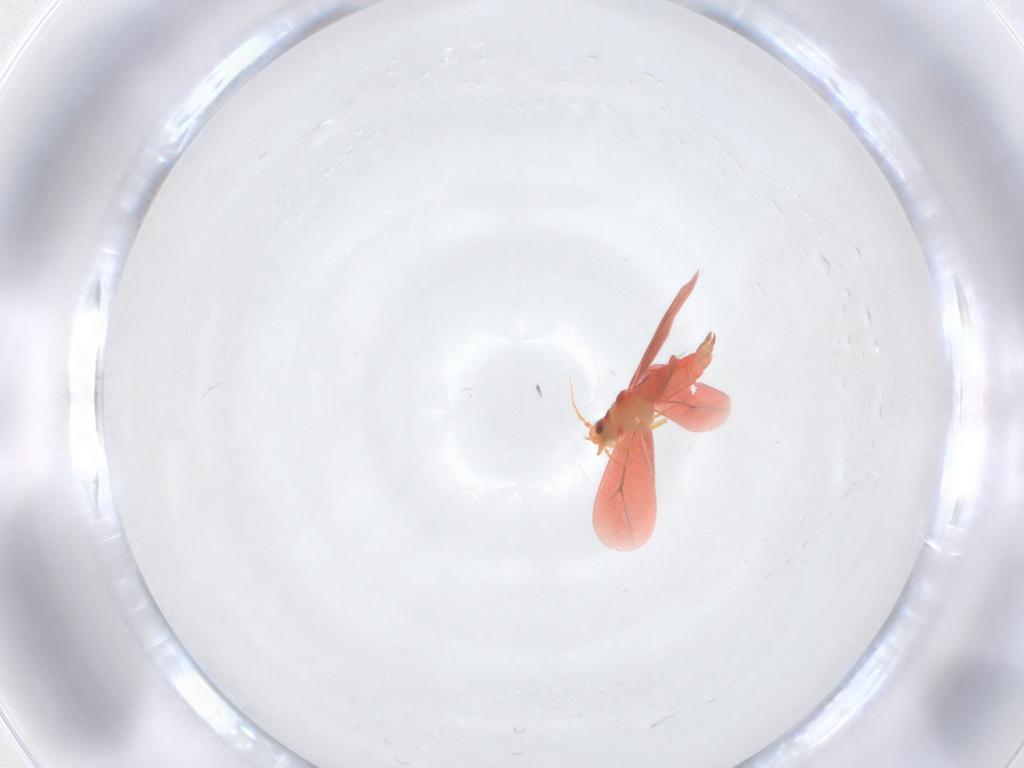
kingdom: Animalia
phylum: Arthropoda
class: Insecta
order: Hemiptera
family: Aleyrodidae
